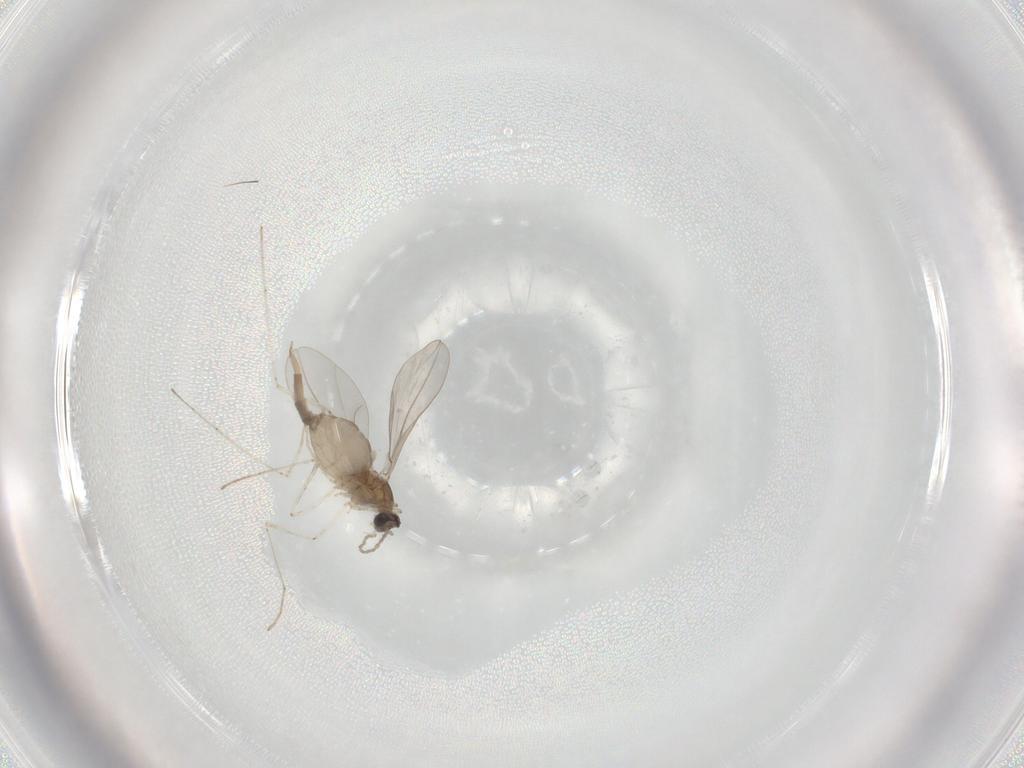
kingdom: Animalia
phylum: Arthropoda
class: Insecta
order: Diptera
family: Cecidomyiidae
